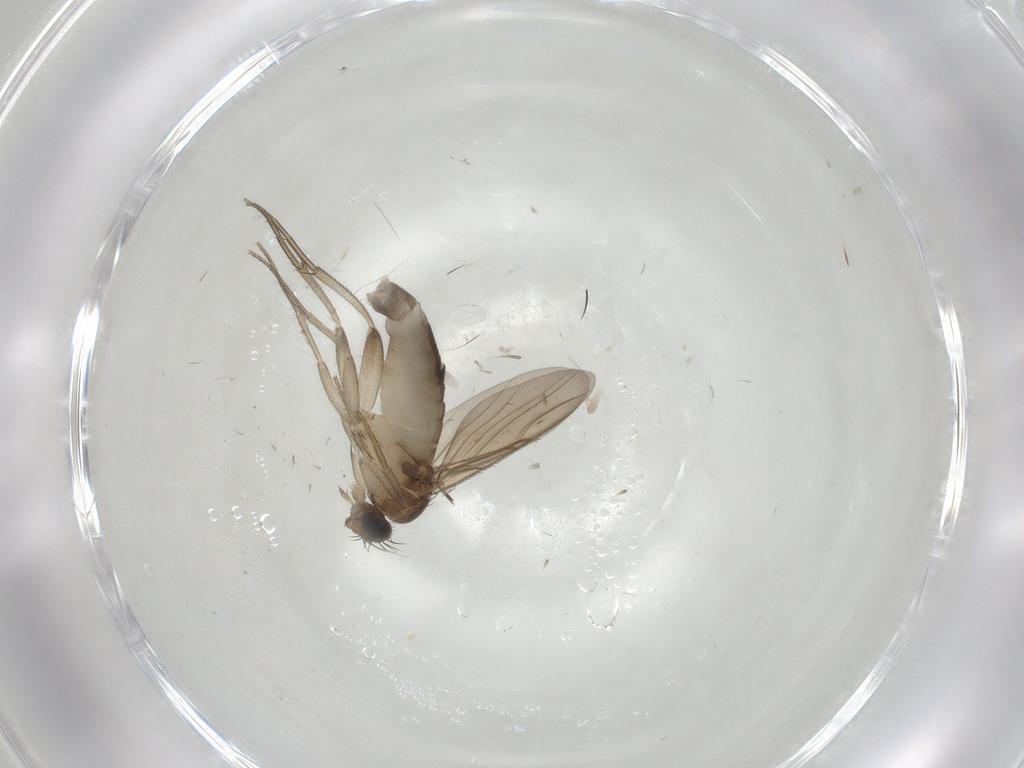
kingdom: Animalia
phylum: Arthropoda
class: Insecta
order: Diptera
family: Phoridae
